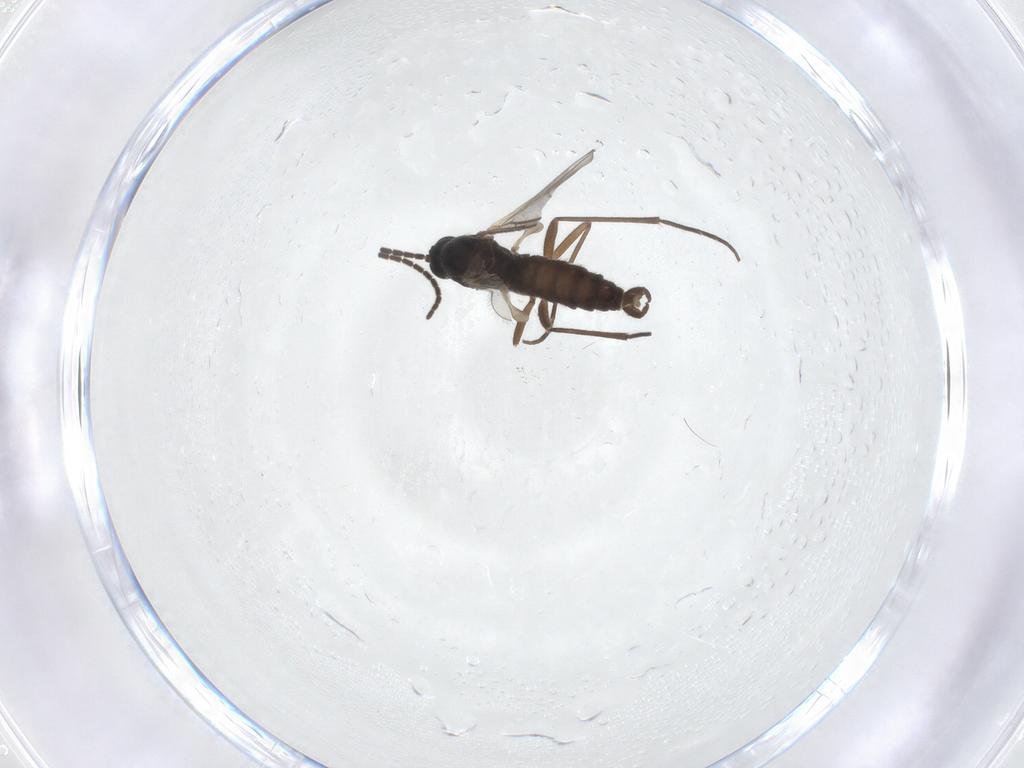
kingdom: Animalia
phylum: Arthropoda
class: Insecta
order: Diptera
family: Sciaridae
